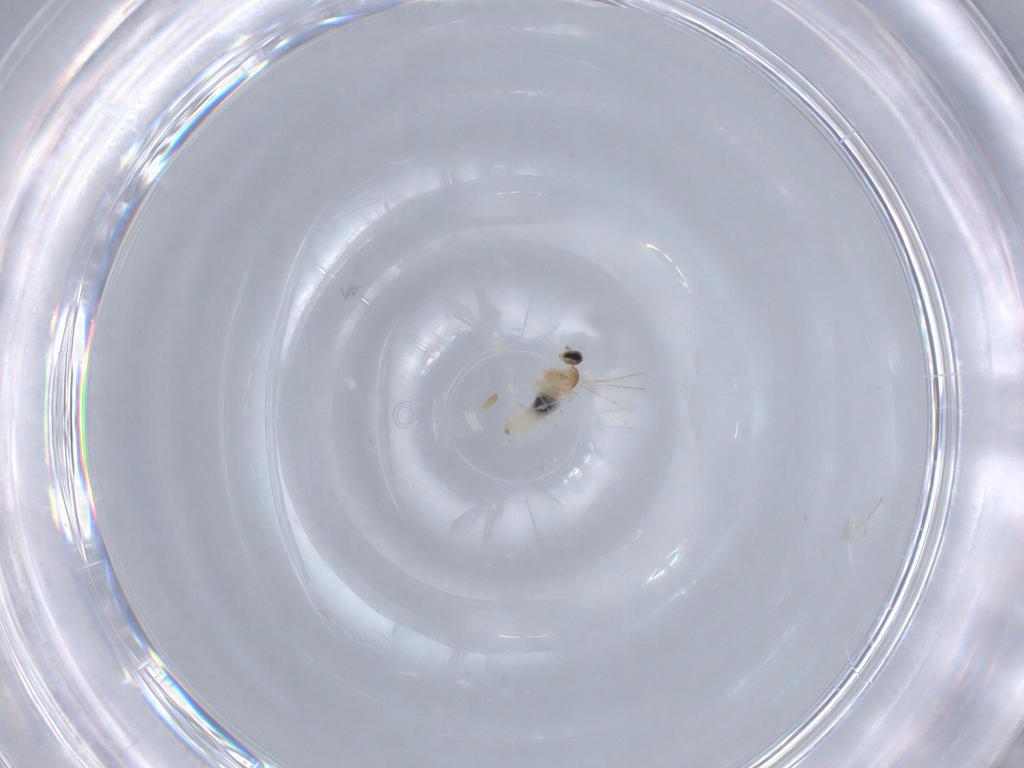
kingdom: Animalia
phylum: Arthropoda
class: Insecta
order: Diptera
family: Cecidomyiidae
